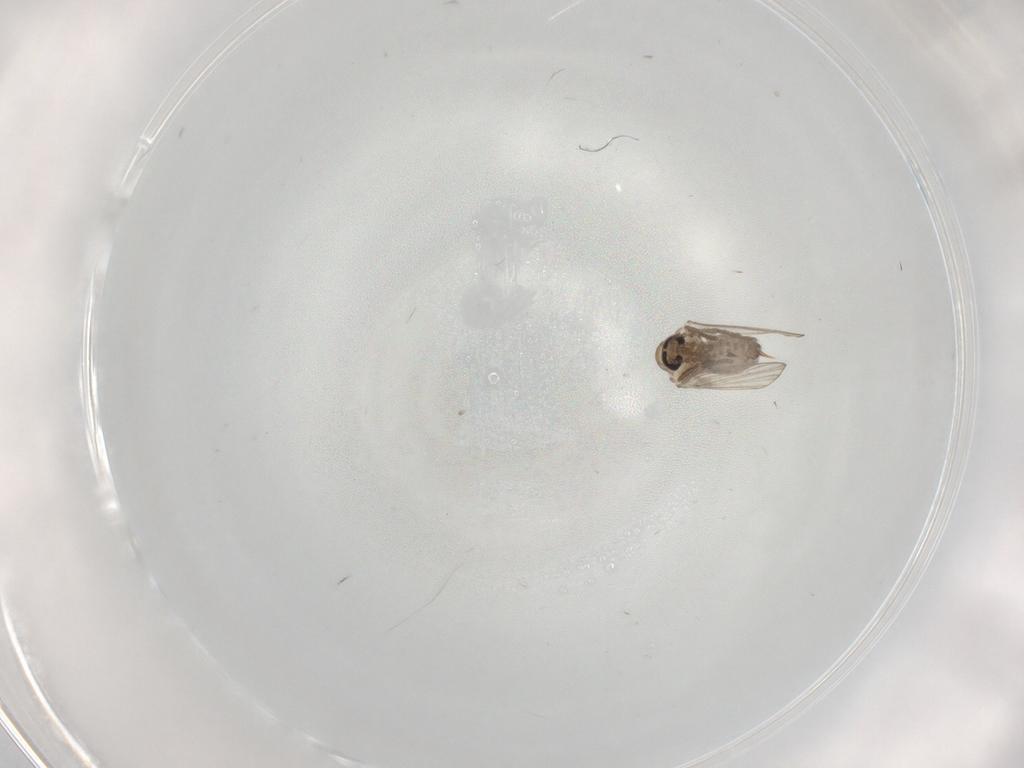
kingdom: Animalia
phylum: Arthropoda
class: Insecta
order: Diptera
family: Psychodidae
